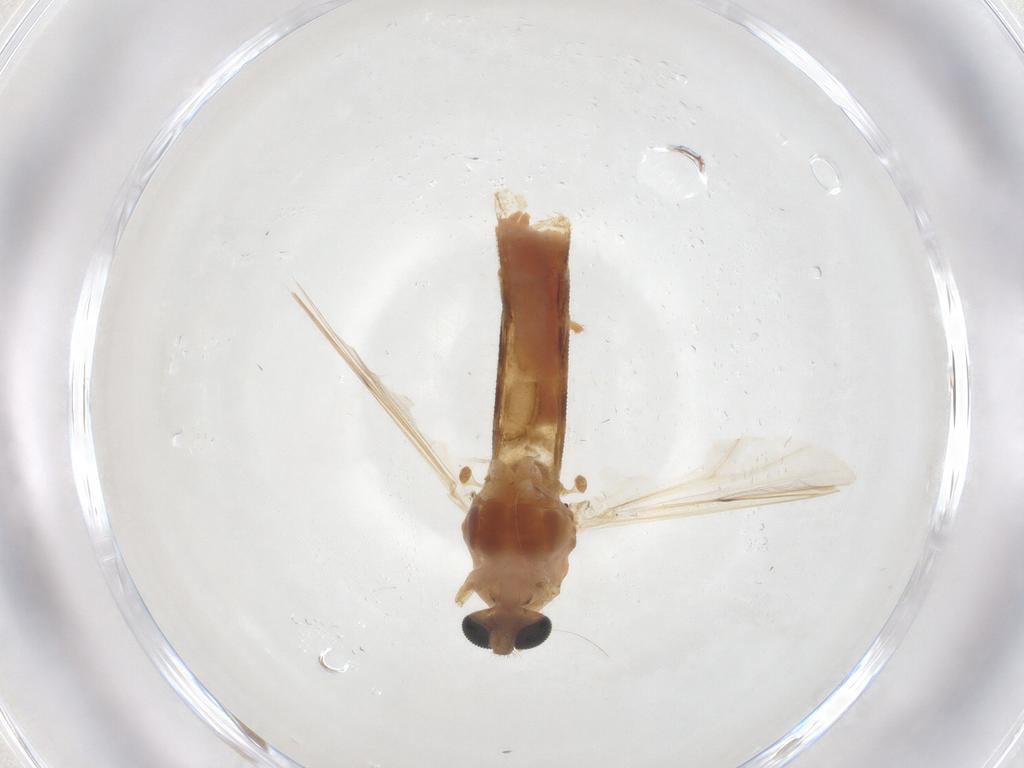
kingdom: Animalia
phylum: Arthropoda
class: Insecta
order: Diptera
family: Chironomidae
